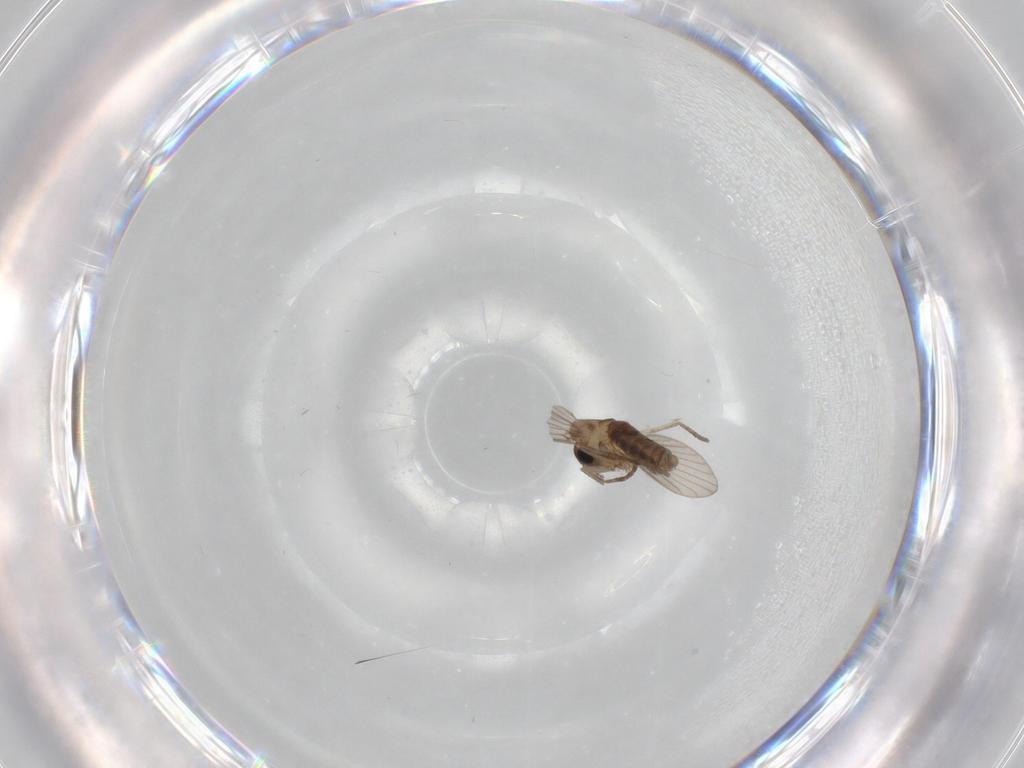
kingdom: Animalia
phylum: Arthropoda
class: Insecta
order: Diptera
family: Psychodidae
